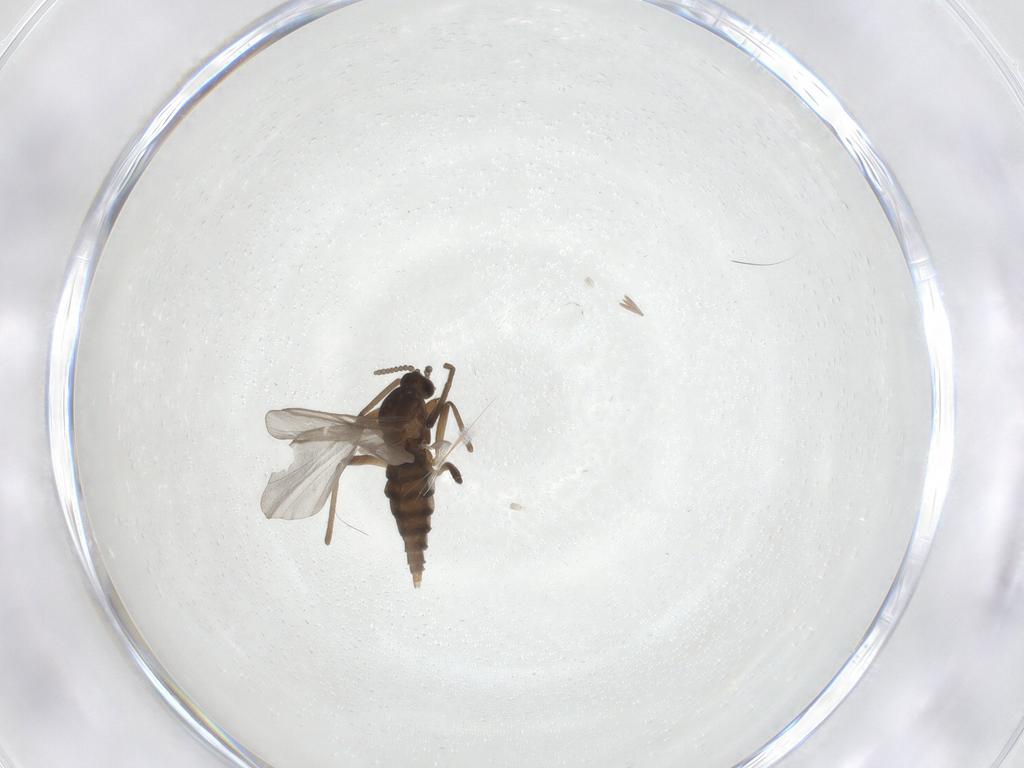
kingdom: Animalia
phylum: Arthropoda
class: Insecta
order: Diptera
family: Cecidomyiidae
